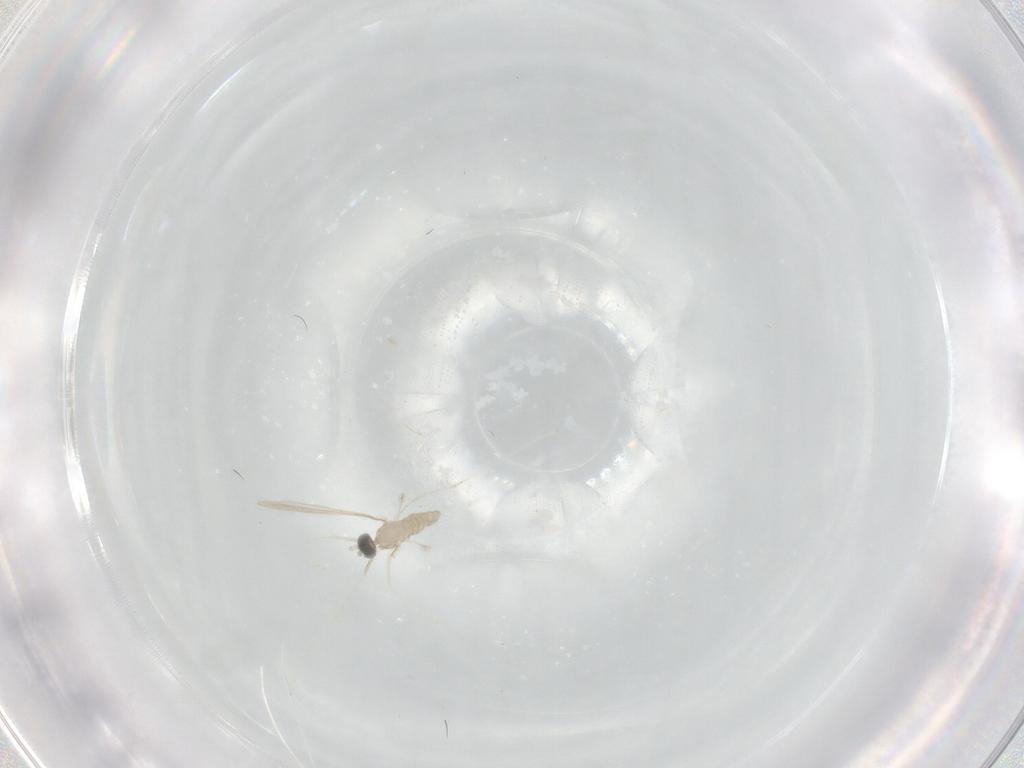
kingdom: Animalia
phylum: Arthropoda
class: Insecta
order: Diptera
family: Cecidomyiidae
